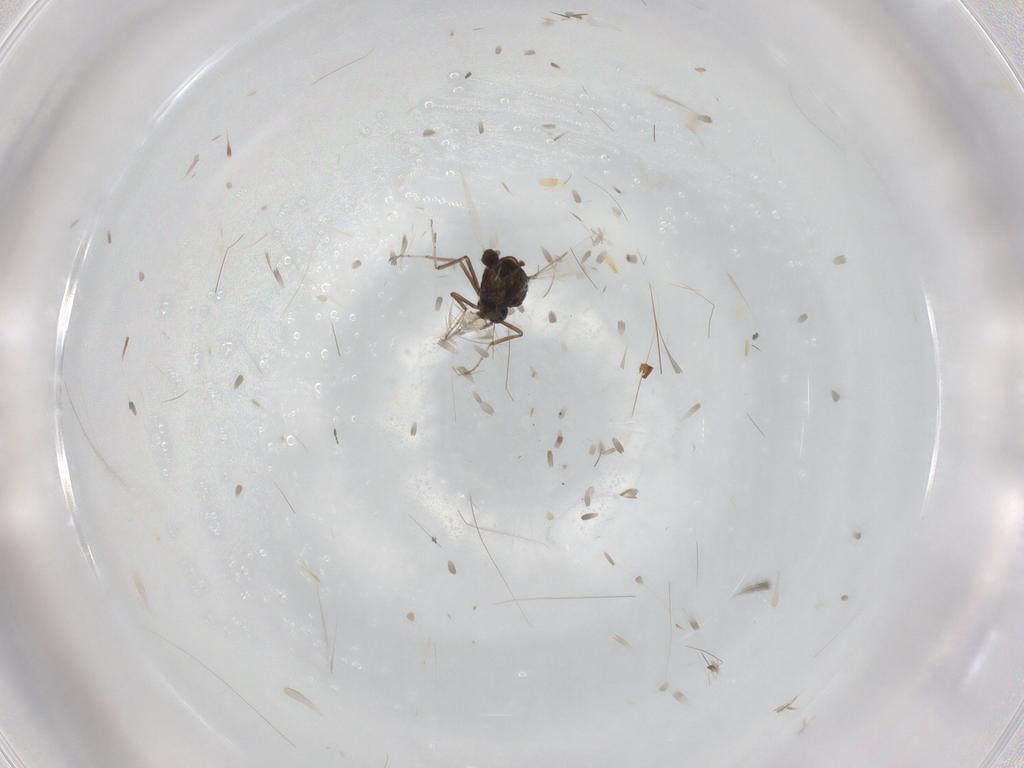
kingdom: Animalia
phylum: Arthropoda
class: Insecta
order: Diptera
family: Ceratopogonidae
